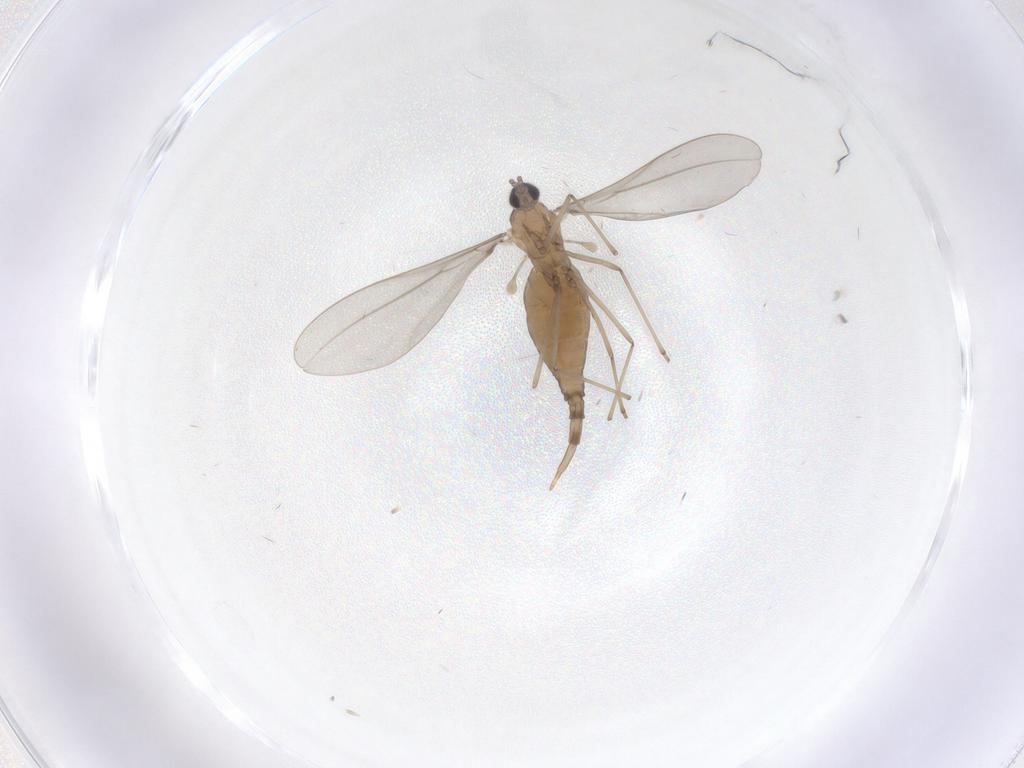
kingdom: Animalia
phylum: Arthropoda
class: Insecta
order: Diptera
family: Cecidomyiidae
